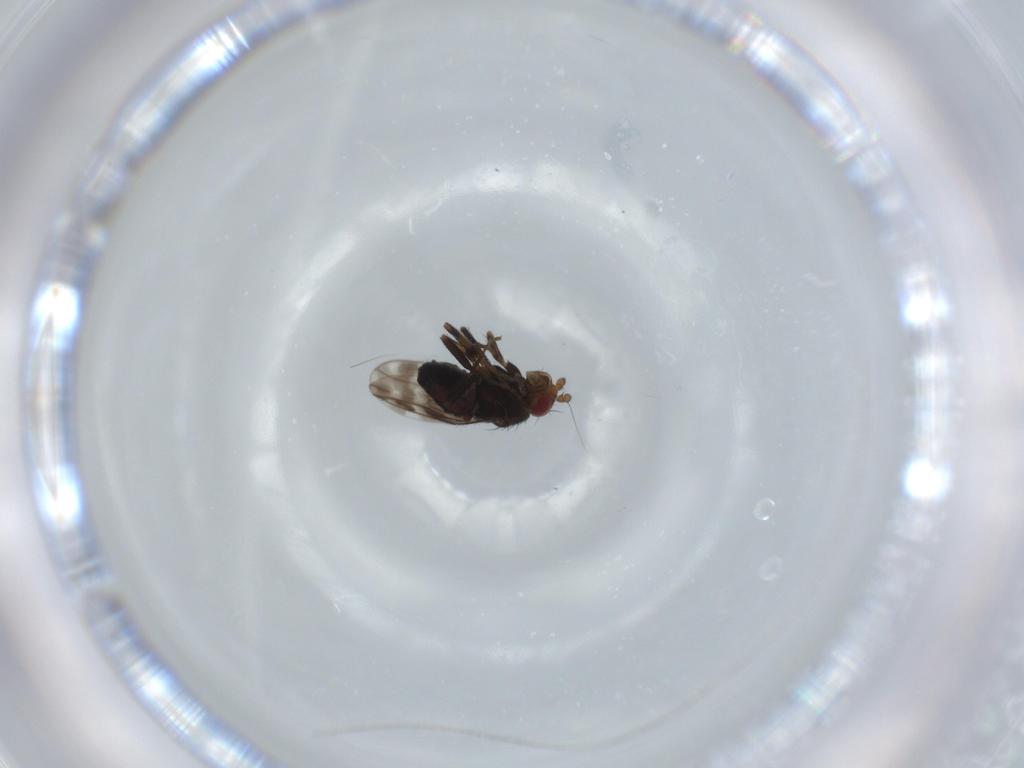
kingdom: Animalia
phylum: Arthropoda
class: Insecta
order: Diptera
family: Sphaeroceridae
